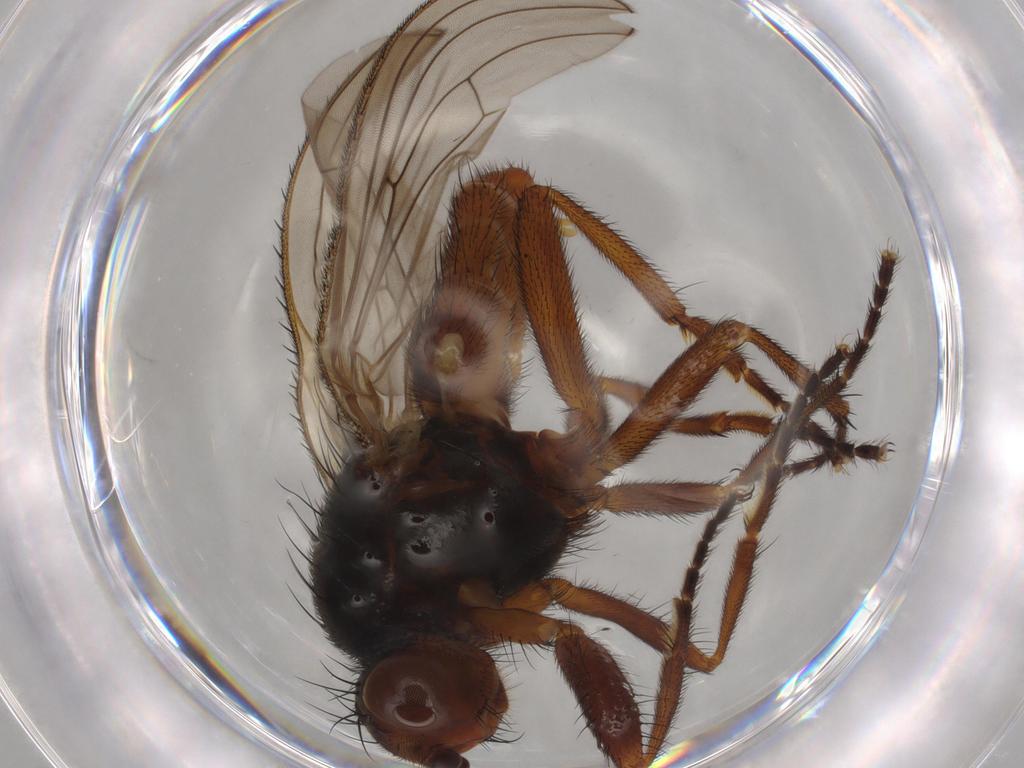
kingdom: Animalia
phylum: Arthropoda
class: Insecta
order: Diptera
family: Heleomyzidae
